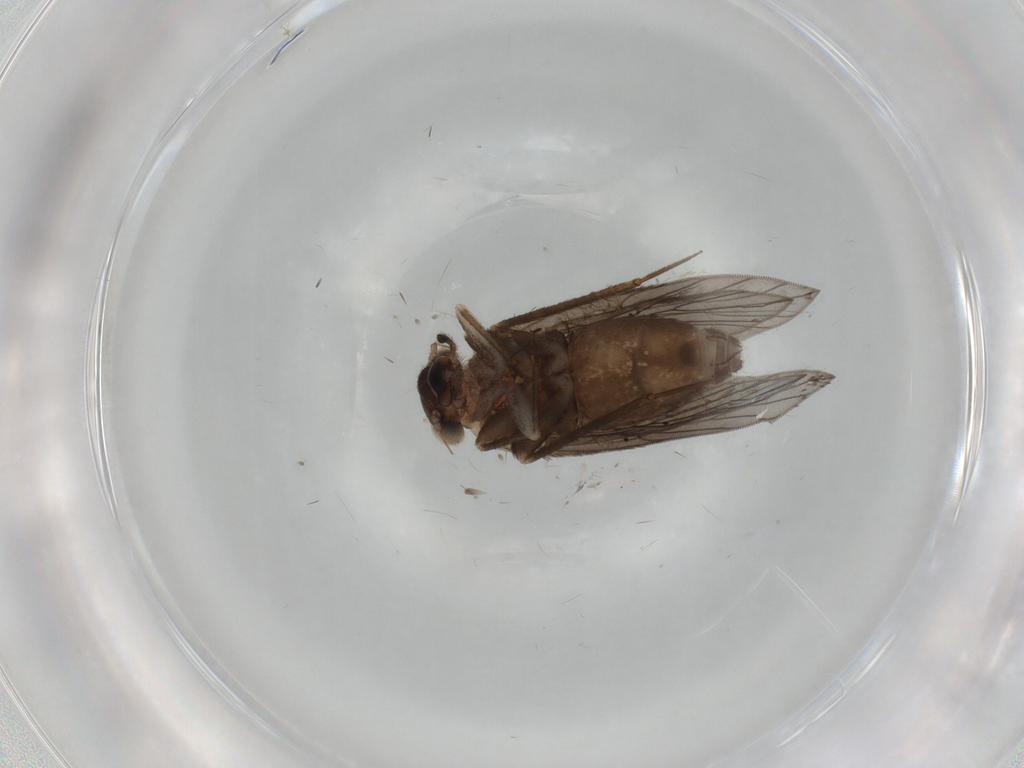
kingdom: Animalia
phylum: Arthropoda
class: Insecta
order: Psocodea
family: Lepidopsocidae
